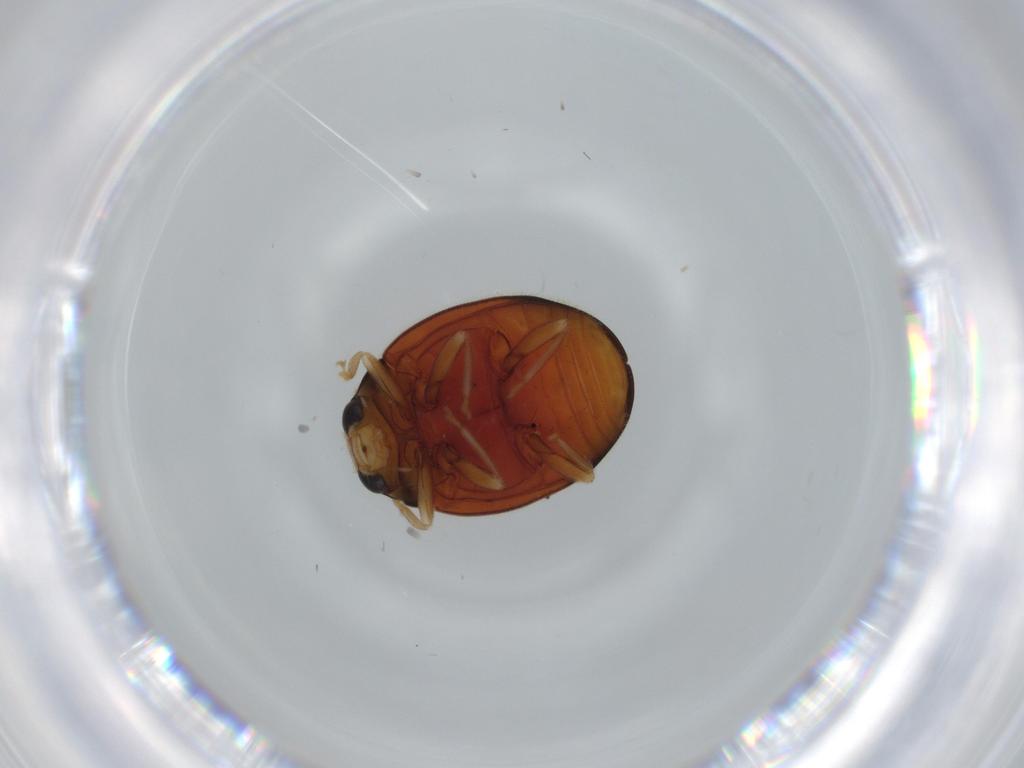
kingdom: Animalia
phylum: Arthropoda
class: Insecta
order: Coleoptera
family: Coccinellidae
